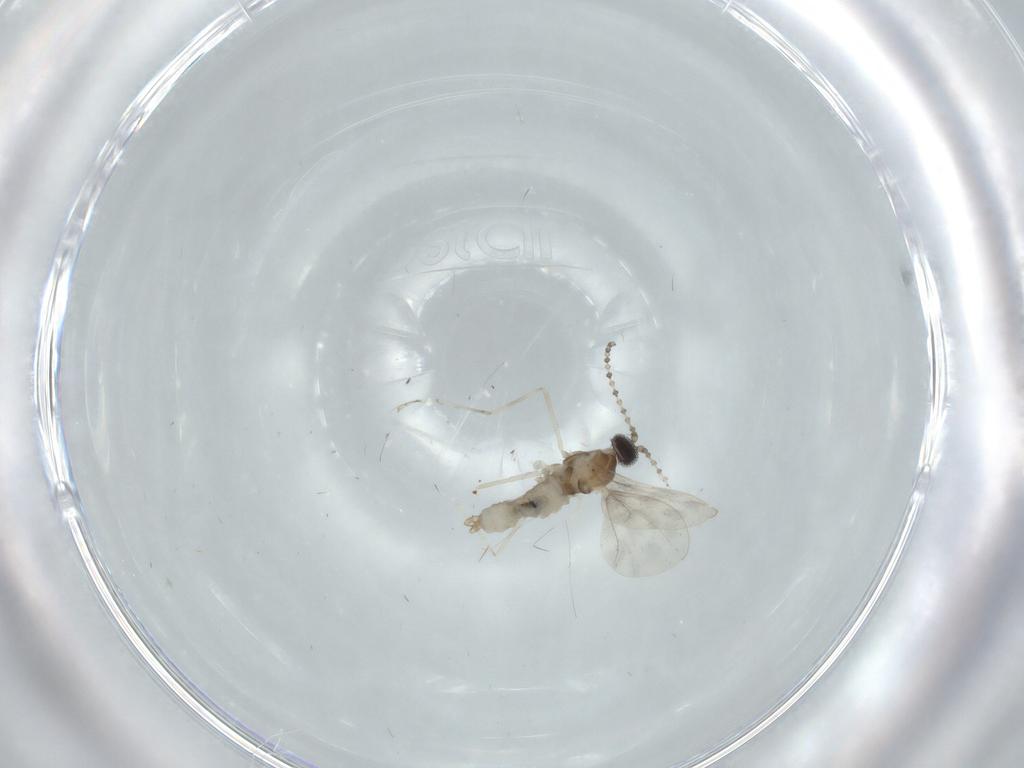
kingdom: Animalia
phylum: Arthropoda
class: Insecta
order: Diptera
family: Cecidomyiidae
